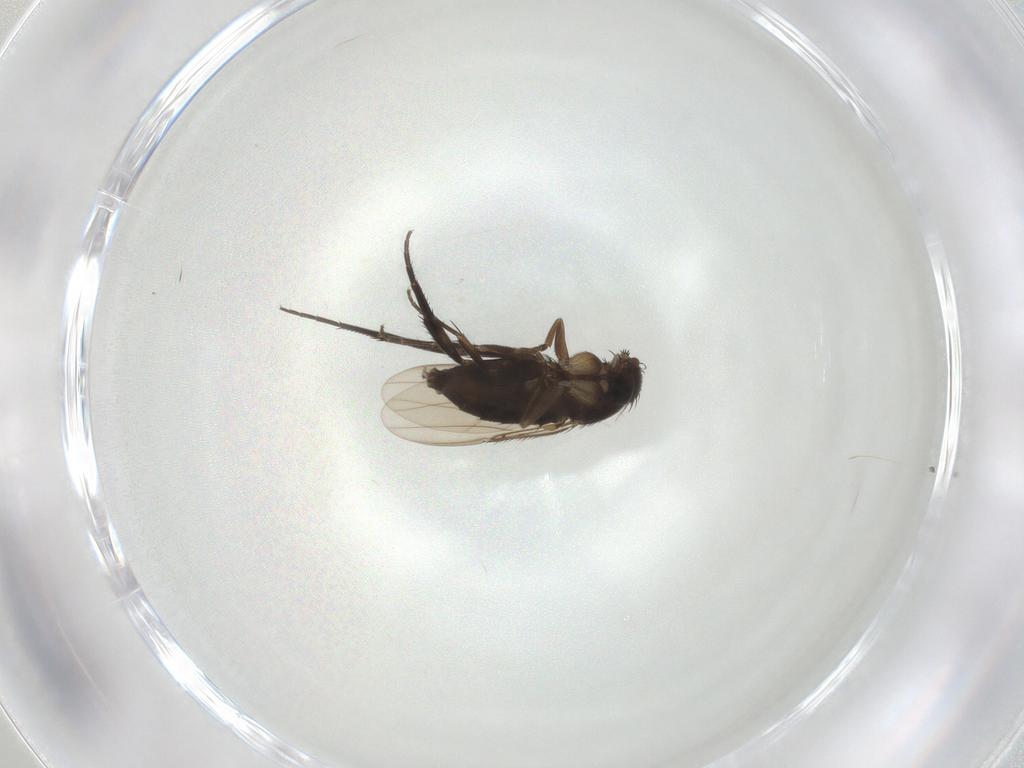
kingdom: Animalia
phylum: Arthropoda
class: Insecta
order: Diptera
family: Phoridae
